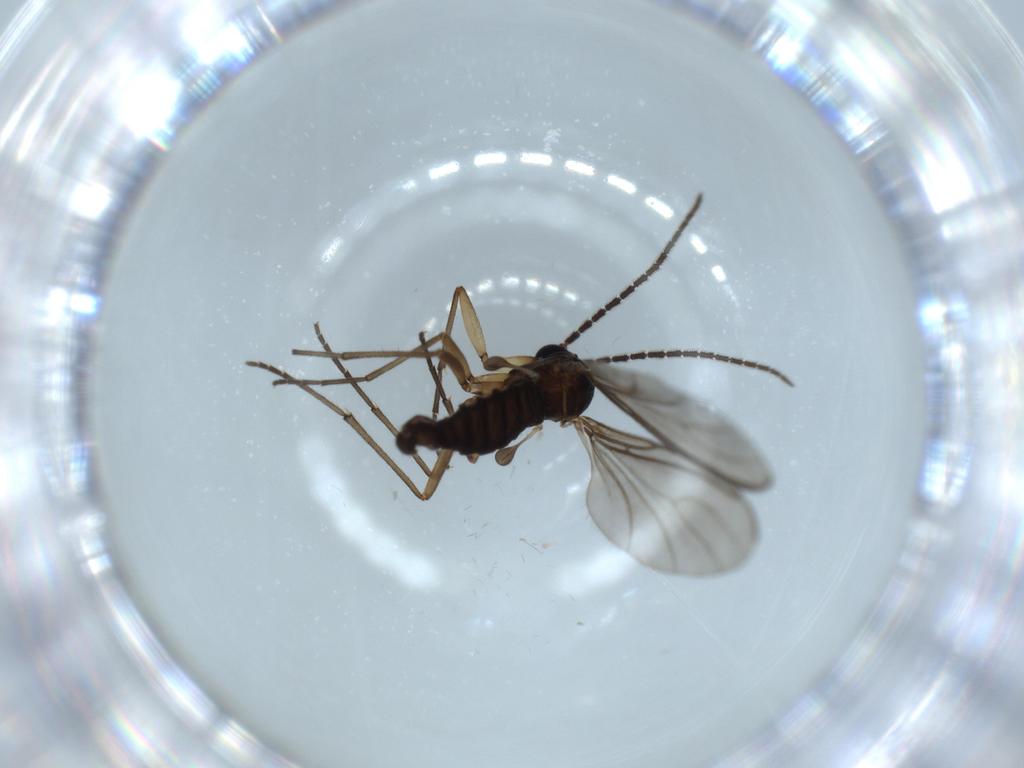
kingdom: Animalia
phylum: Arthropoda
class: Insecta
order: Diptera
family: Sciaridae
